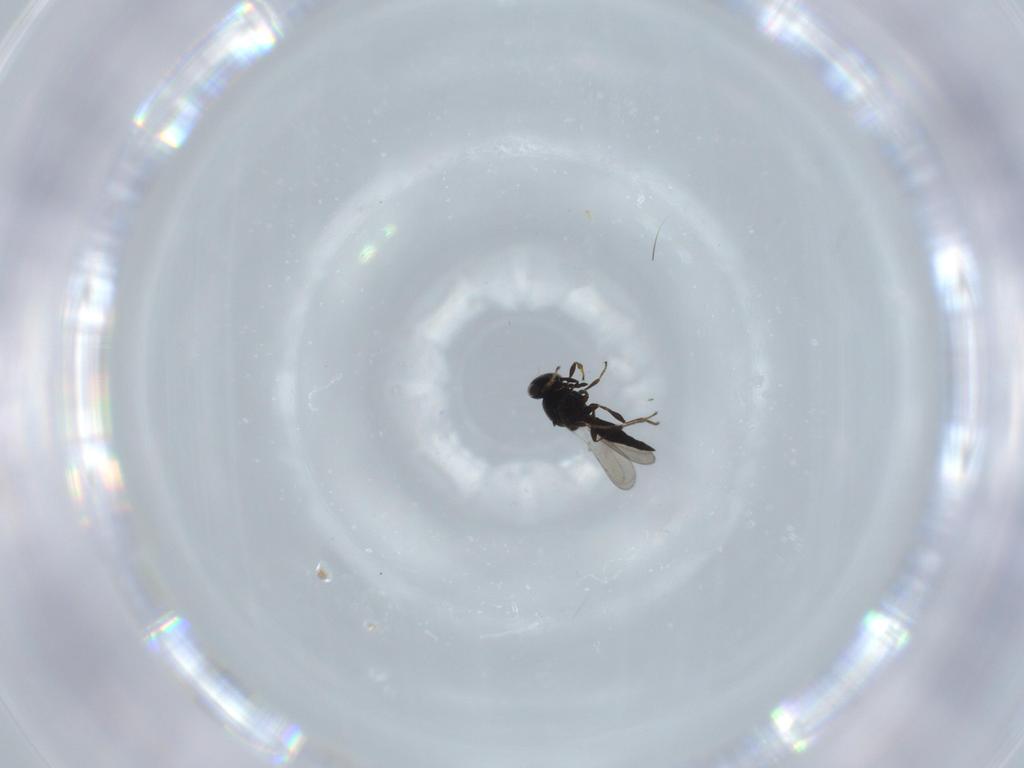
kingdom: Animalia
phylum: Arthropoda
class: Insecta
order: Hymenoptera
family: Platygastridae
